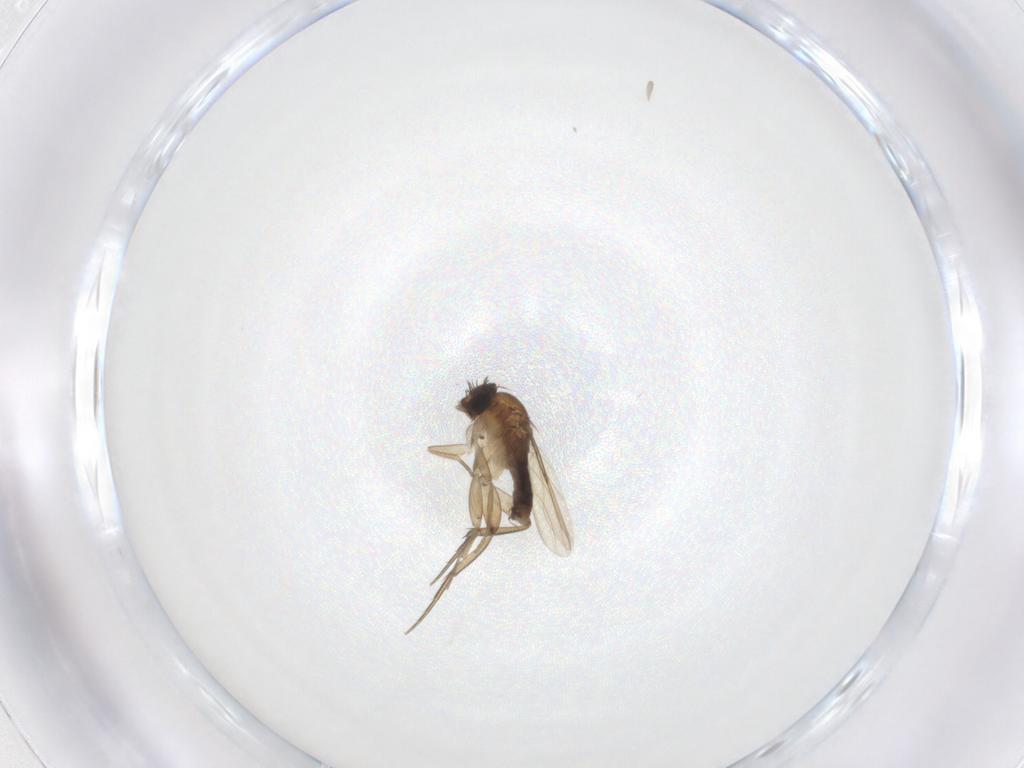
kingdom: Animalia
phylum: Arthropoda
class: Insecta
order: Diptera
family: Phoridae
